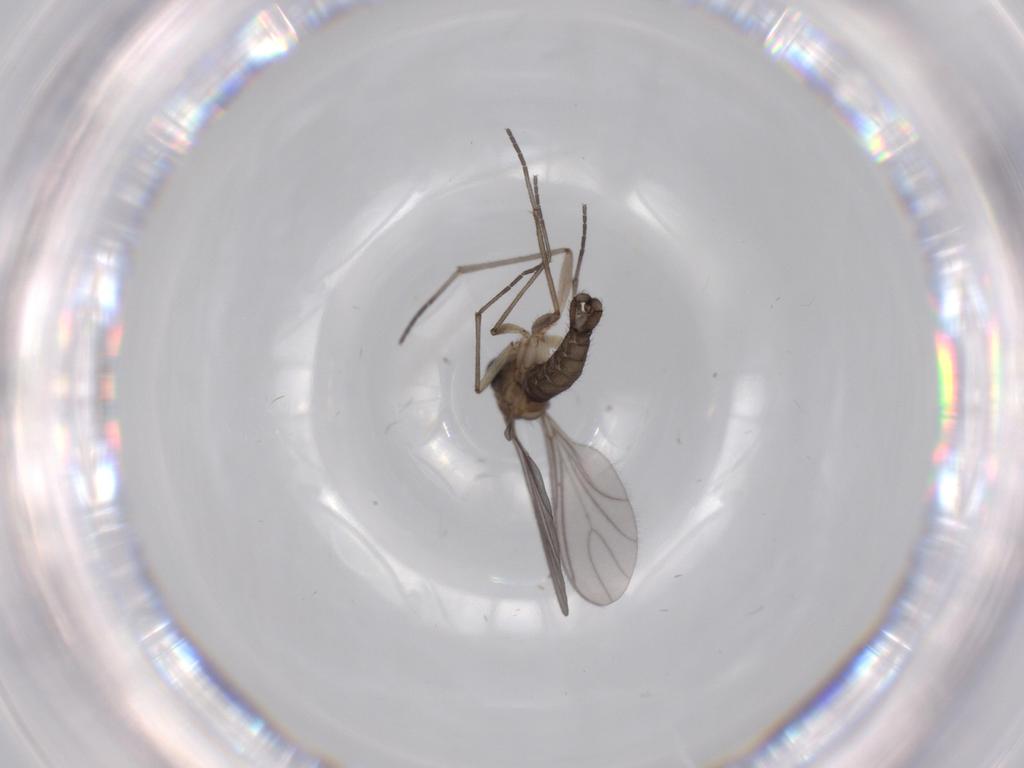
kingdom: Animalia
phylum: Arthropoda
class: Insecta
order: Diptera
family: Sciaridae
